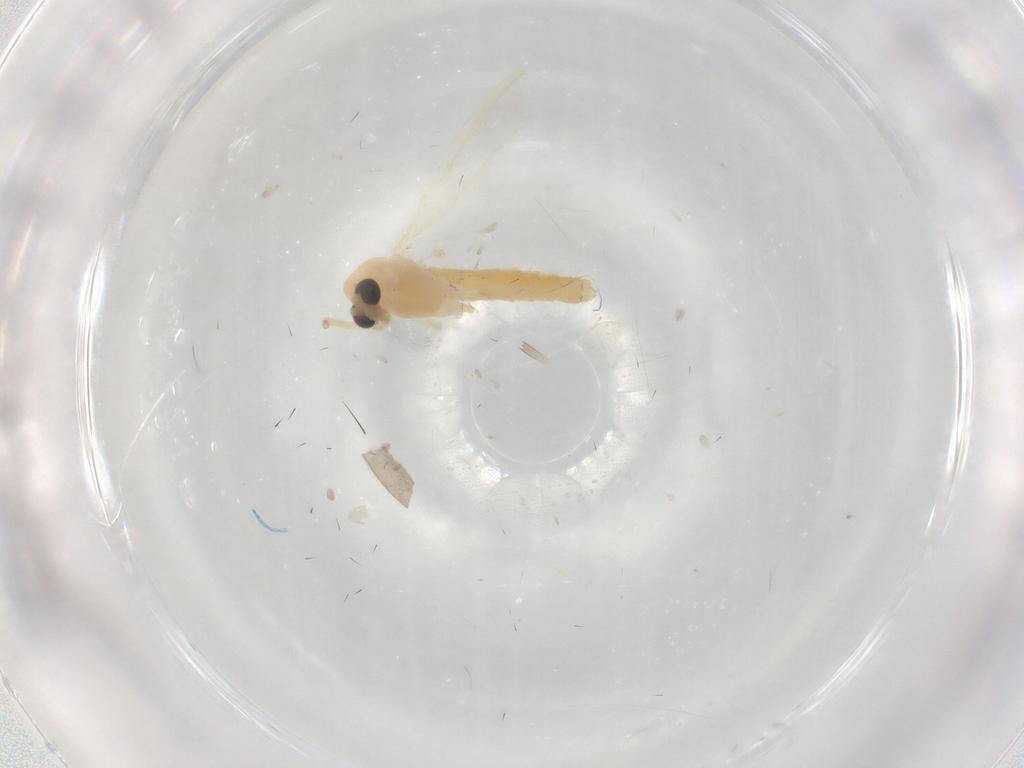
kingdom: Animalia
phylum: Arthropoda
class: Insecta
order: Diptera
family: Chironomidae
